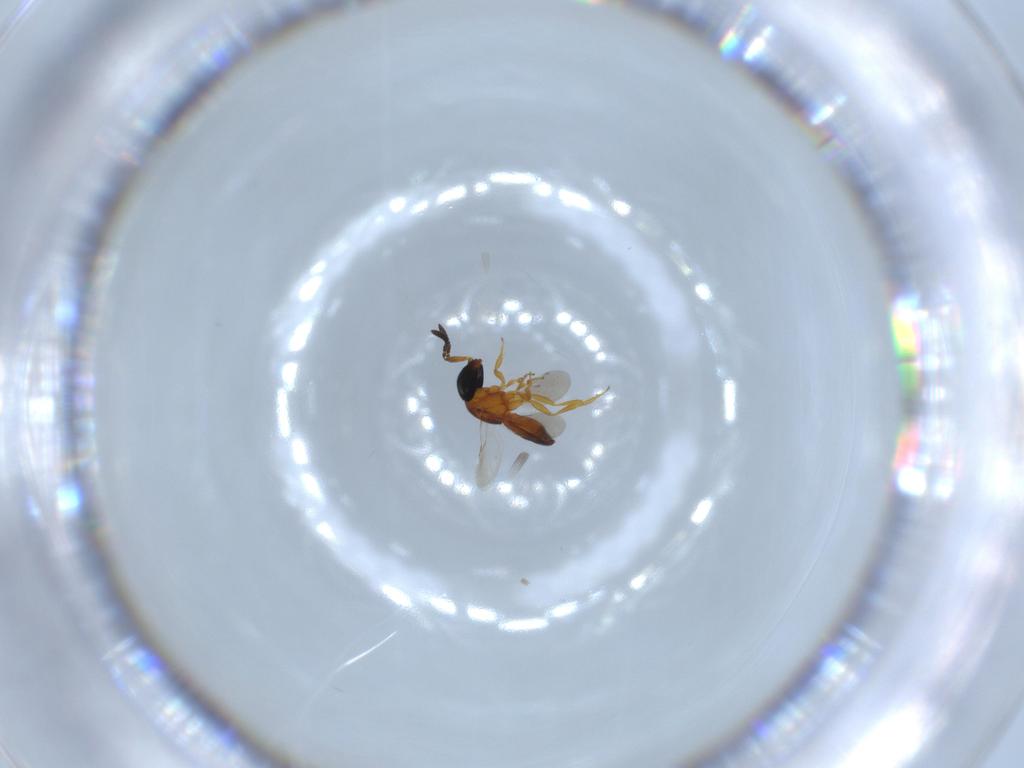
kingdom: Animalia
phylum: Arthropoda
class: Insecta
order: Hymenoptera
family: Scelionidae
